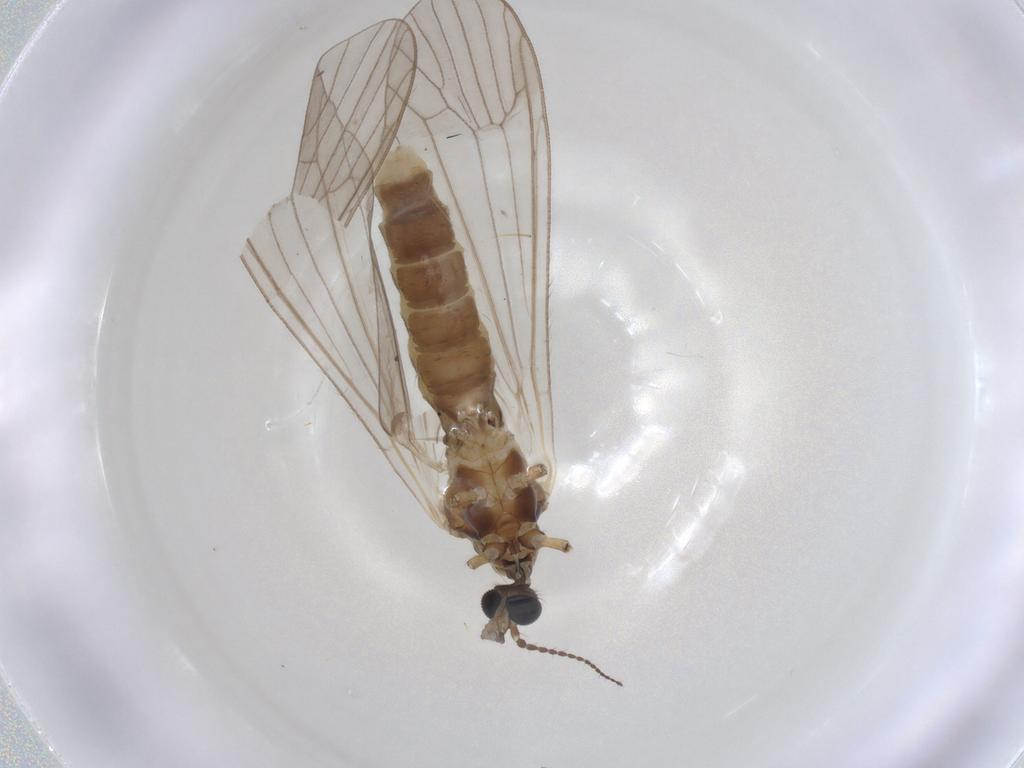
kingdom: Animalia
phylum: Arthropoda
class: Insecta
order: Diptera
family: Limoniidae
